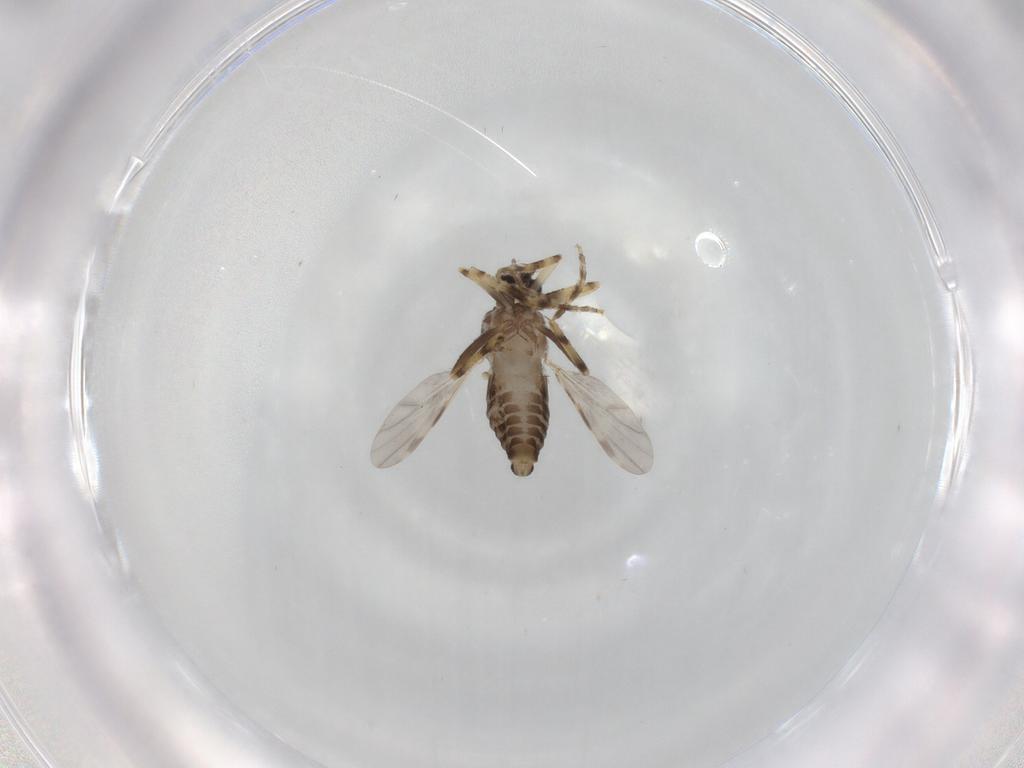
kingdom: Animalia
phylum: Arthropoda
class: Insecta
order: Diptera
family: Ceratopogonidae
